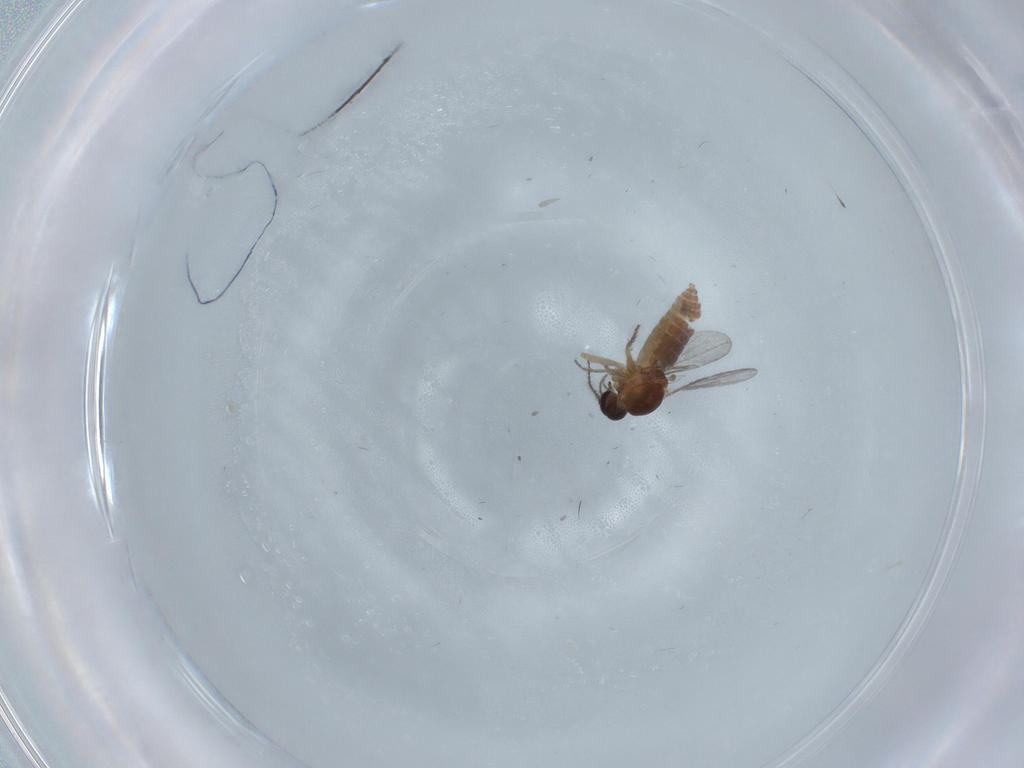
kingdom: Animalia
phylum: Arthropoda
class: Insecta
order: Diptera
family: Chironomidae
